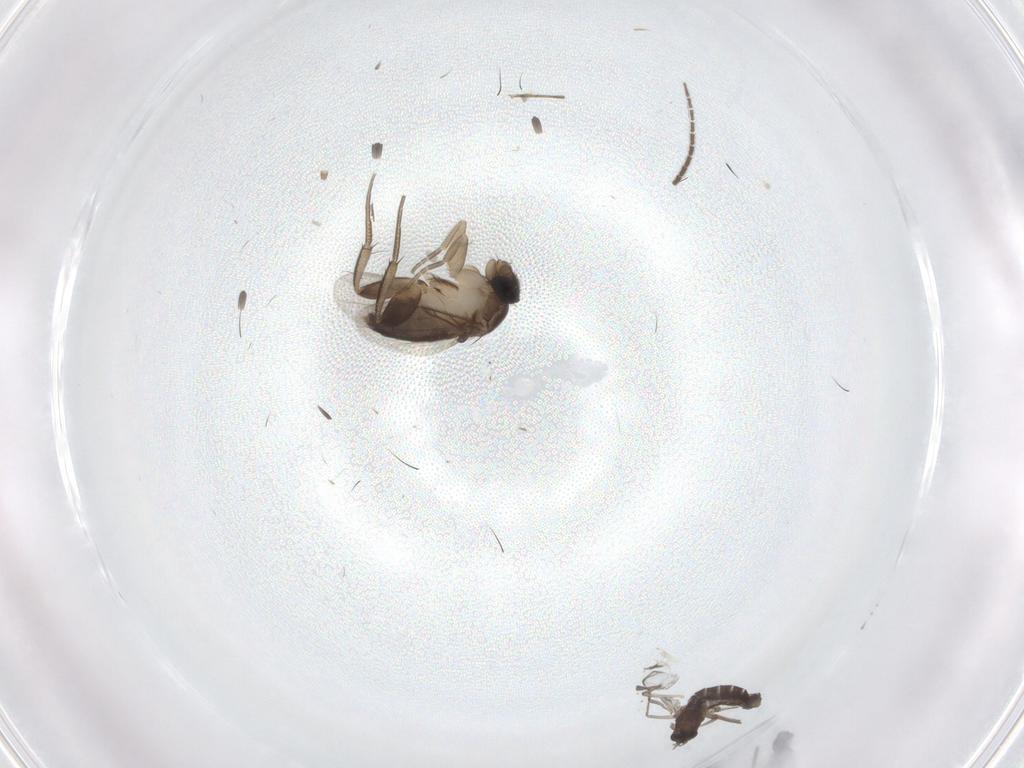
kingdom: Animalia
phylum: Arthropoda
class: Insecta
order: Diptera
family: Phoridae
